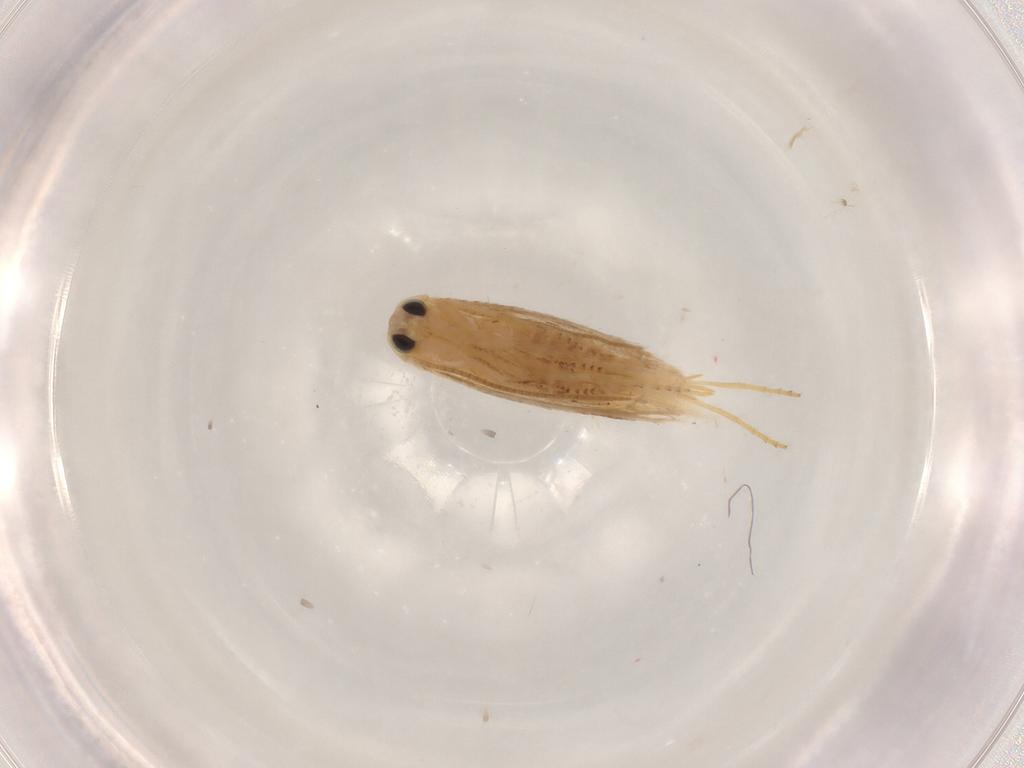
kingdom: Animalia
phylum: Arthropoda
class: Insecta
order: Lepidoptera
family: Bucculatricidae
